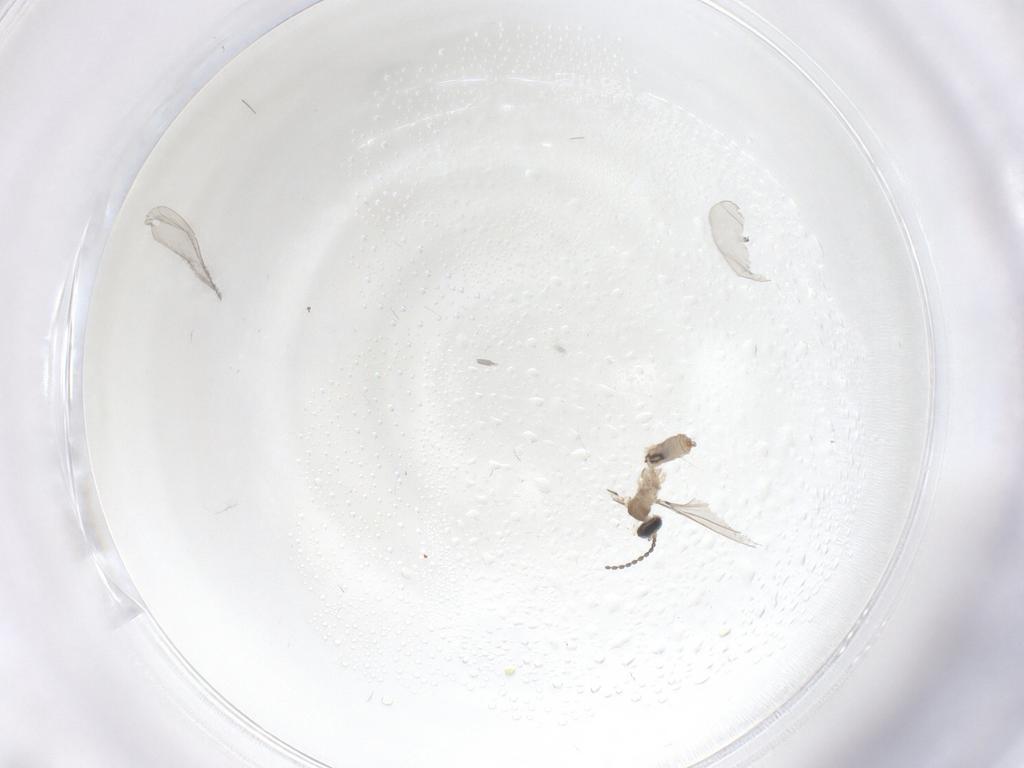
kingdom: Animalia
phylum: Arthropoda
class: Insecta
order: Diptera
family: Cecidomyiidae
